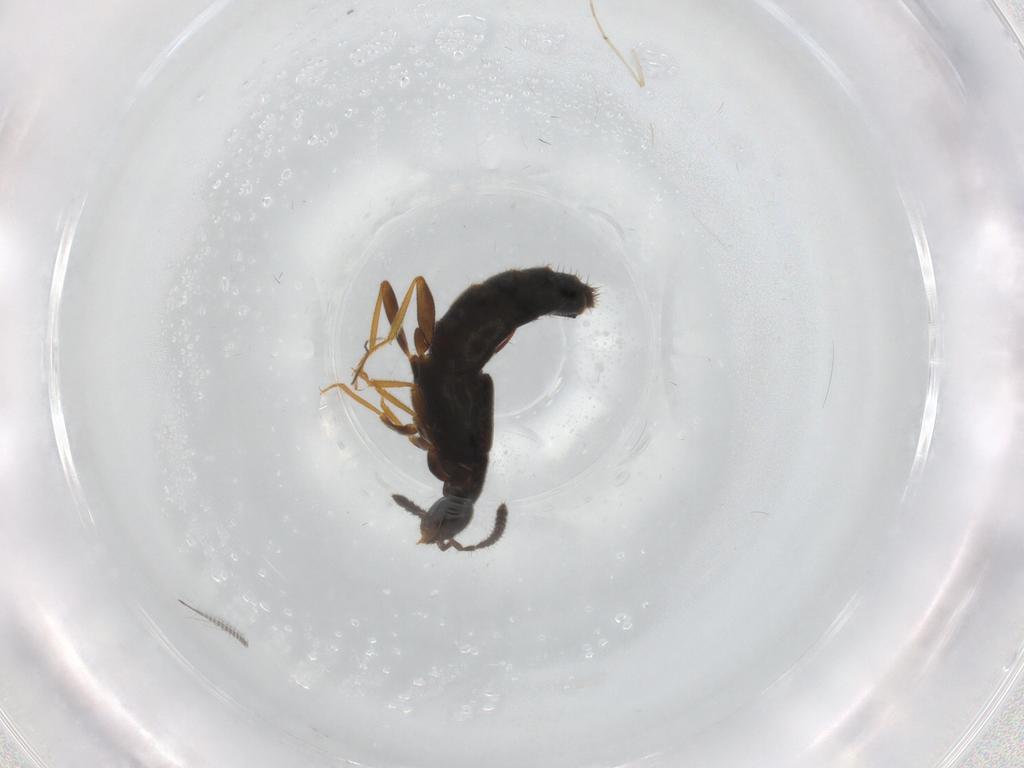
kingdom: Animalia
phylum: Arthropoda
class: Insecta
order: Coleoptera
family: Staphylinidae
